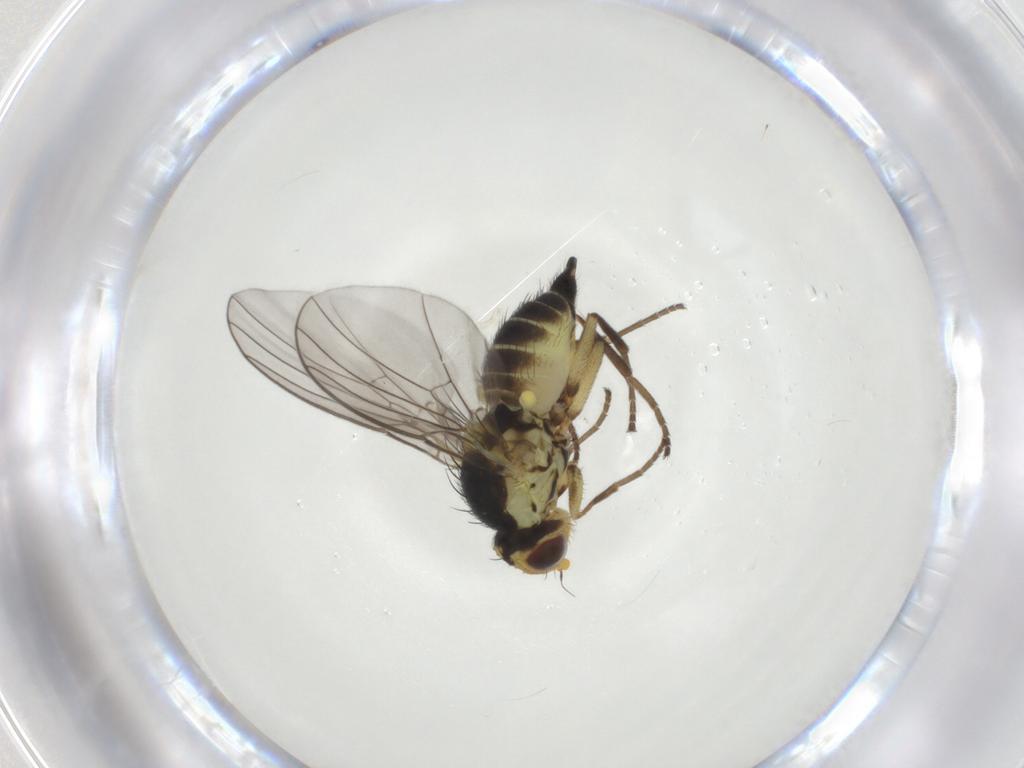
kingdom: Animalia
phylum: Arthropoda
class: Insecta
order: Diptera
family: Agromyzidae
